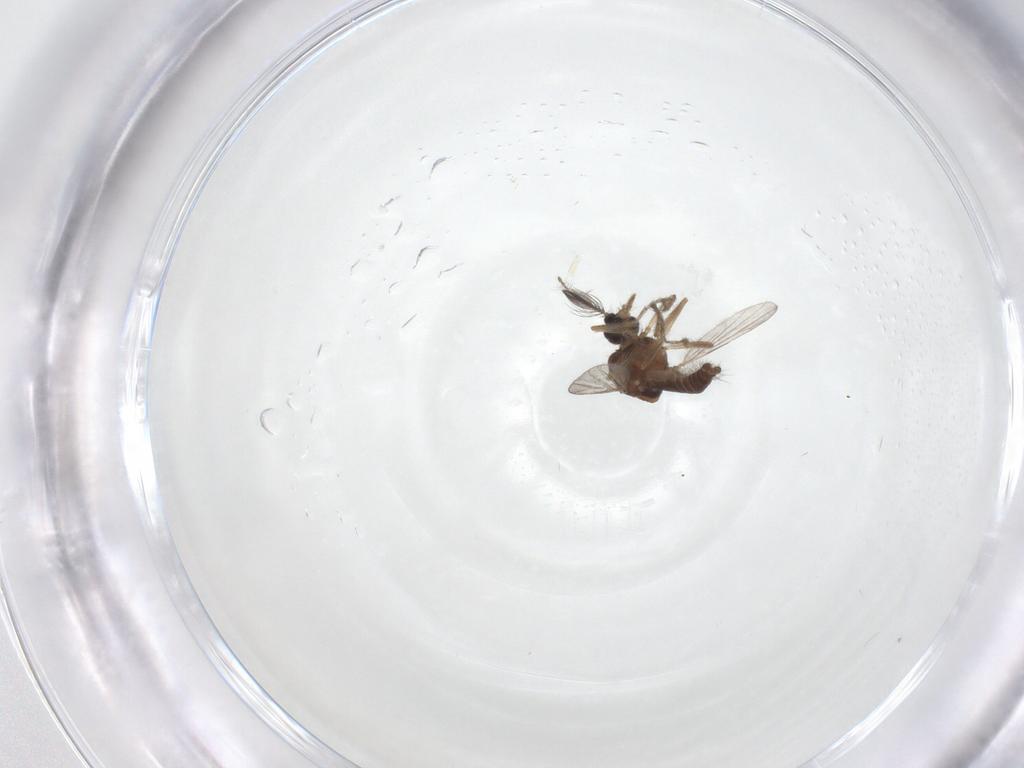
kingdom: Animalia
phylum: Arthropoda
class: Insecta
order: Diptera
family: Ceratopogonidae
